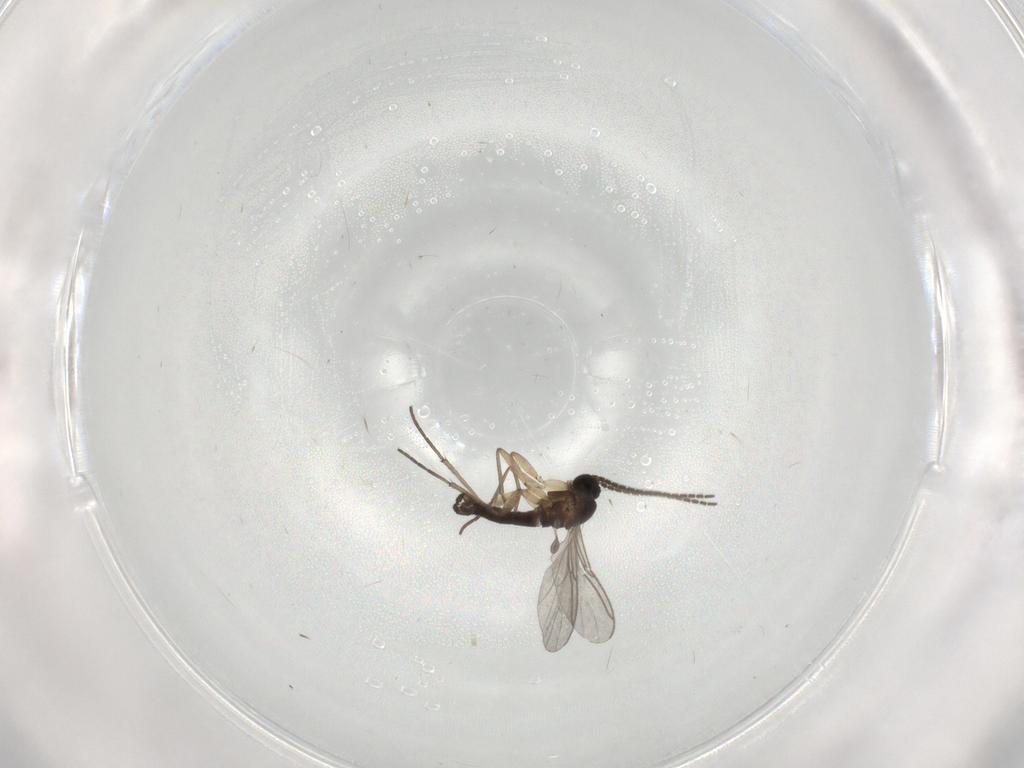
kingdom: Animalia
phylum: Arthropoda
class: Insecta
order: Diptera
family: Sciaridae
